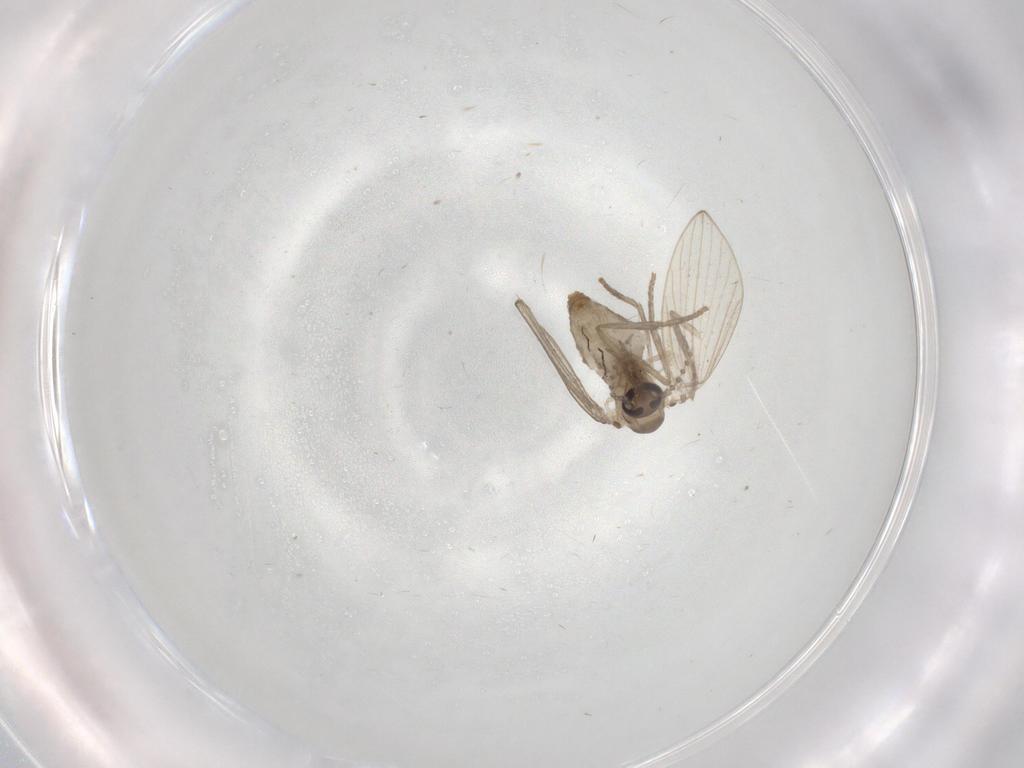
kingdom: Animalia
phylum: Arthropoda
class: Insecta
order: Diptera
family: Psychodidae
